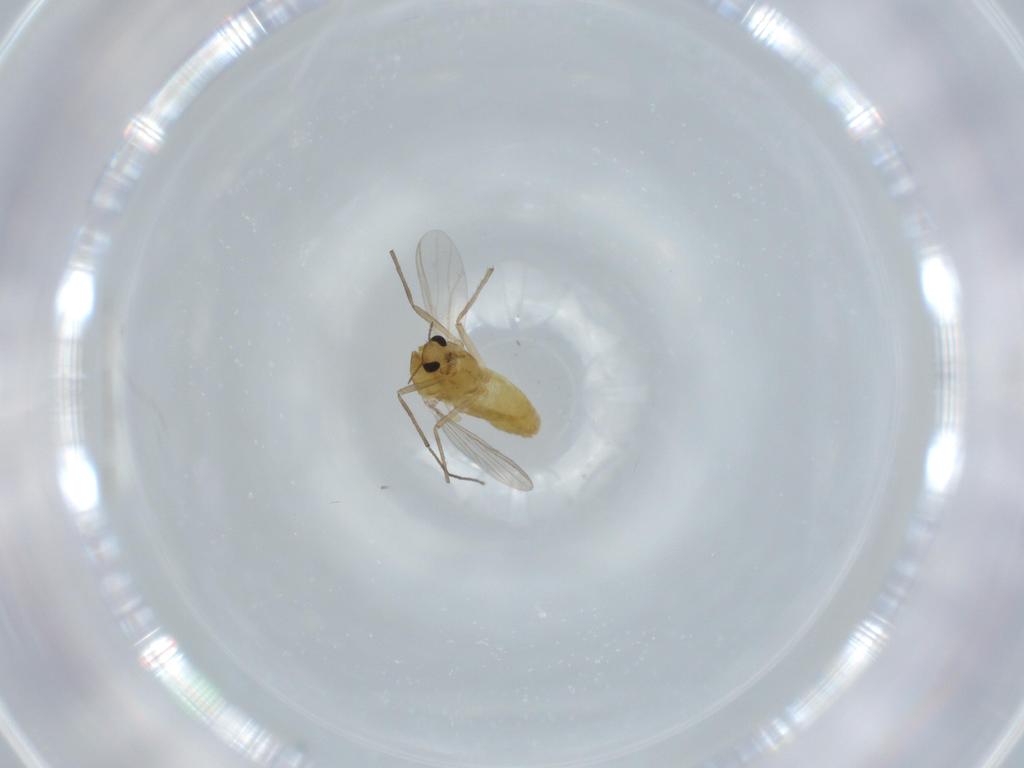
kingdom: Animalia
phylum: Arthropoda
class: Insecta
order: Diptera
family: Chironomidae
